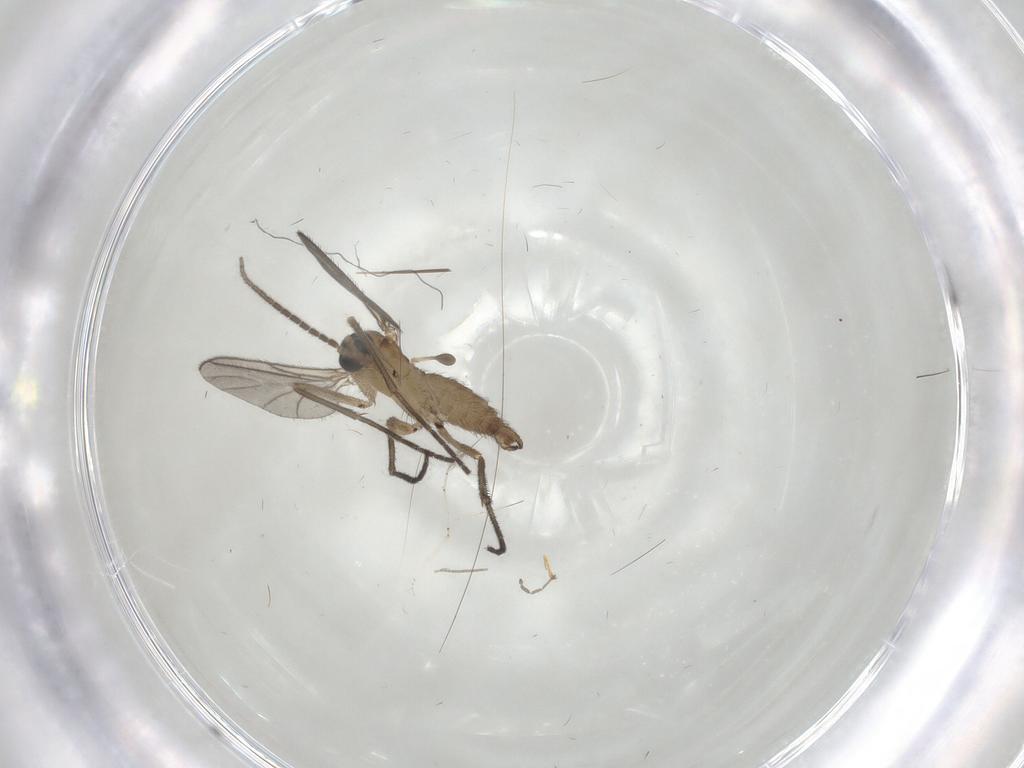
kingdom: Animalia
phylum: Arthropoda
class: Insecta
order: Diptera
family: Sciaridae
